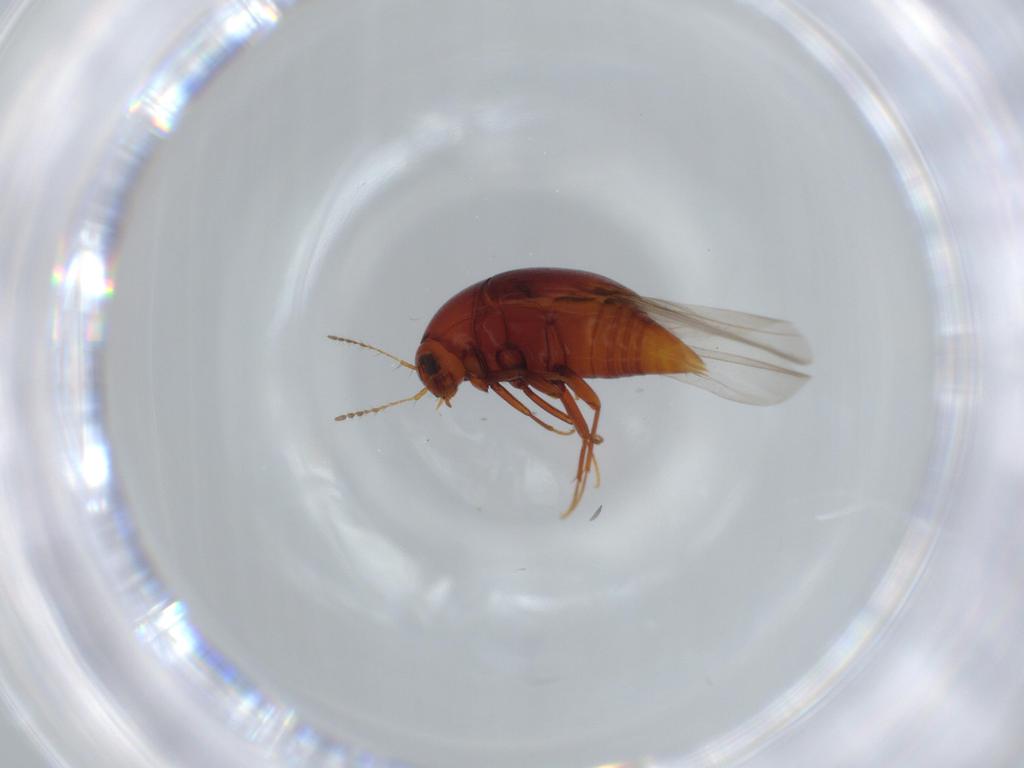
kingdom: Animalia
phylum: Arthropoda
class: Insecta
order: Coleoptera
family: Staphylinidae
